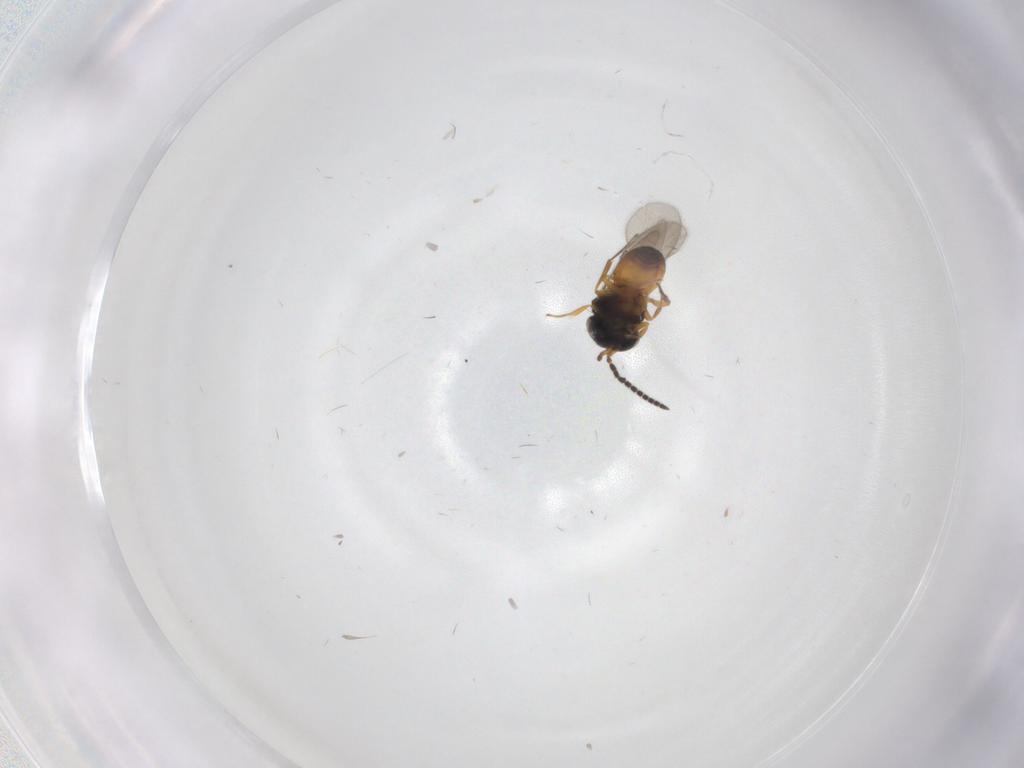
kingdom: Animalia
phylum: Arthropoda
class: Insecta
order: Hymenoptera
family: Scelionidae
